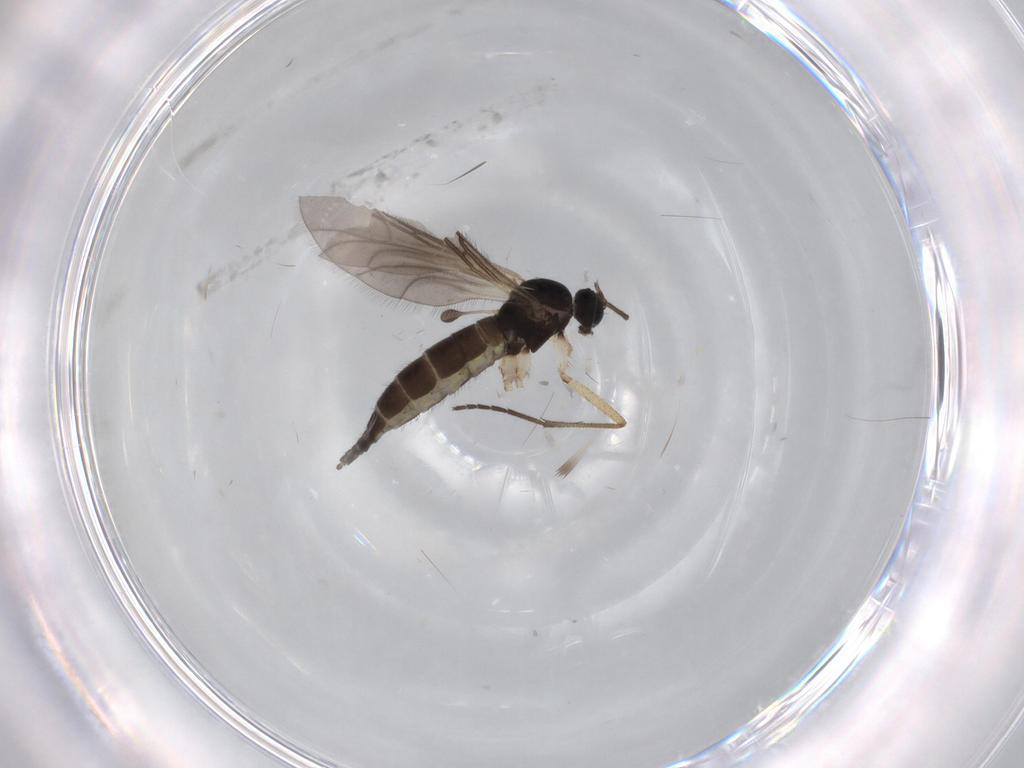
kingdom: Animalia
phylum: Arthropoda
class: Insecta
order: Diptera
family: Sciaridae
